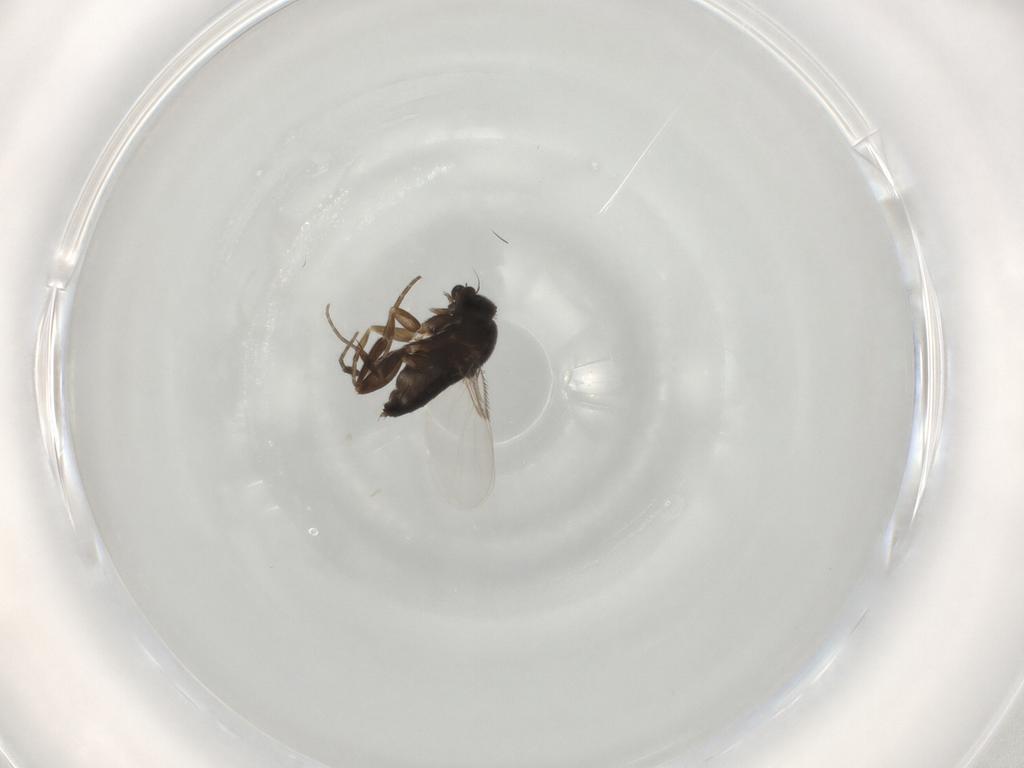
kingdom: Animalia
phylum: Arthropoda
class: Insecta
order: Diptera
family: Phoridae
